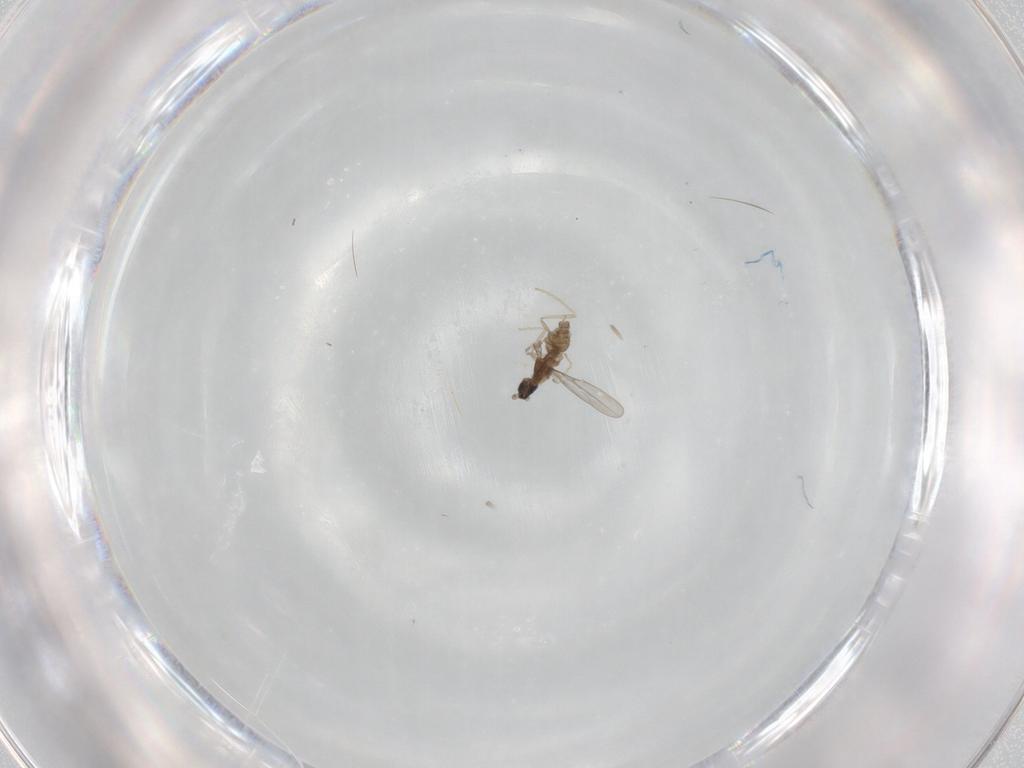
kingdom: Animalia
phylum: Arthropoda
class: Insecta
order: Diptera
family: Cecidomyiidae
